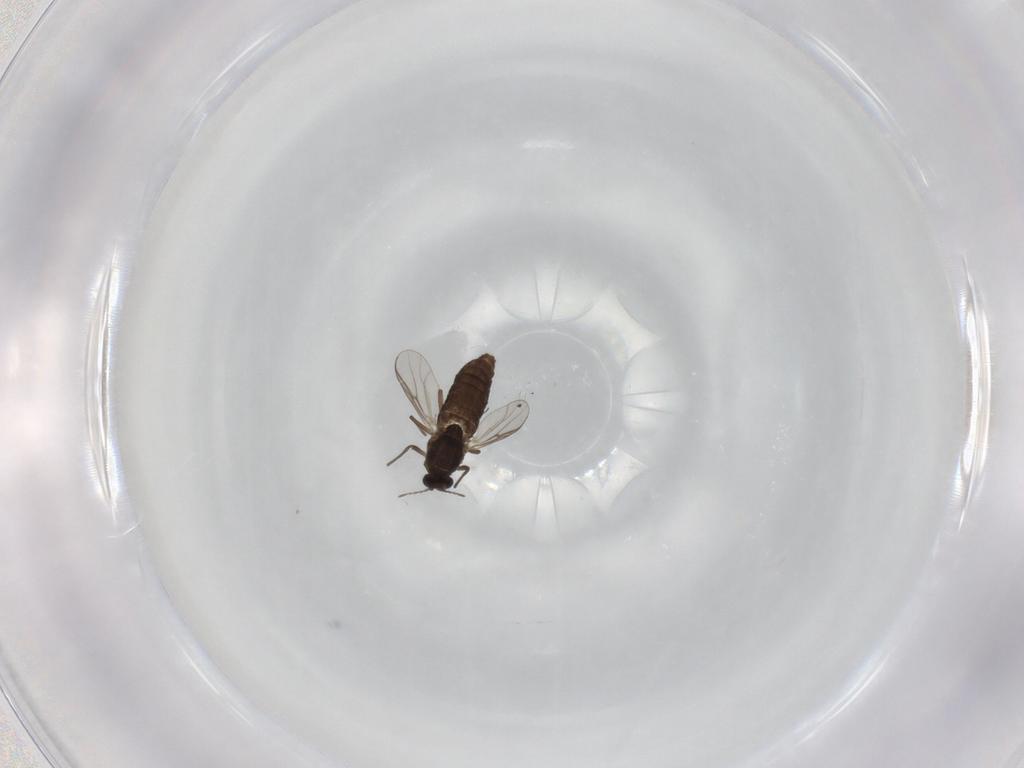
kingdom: Animalia
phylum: Arthropoda
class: Insecta
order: Diptera
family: Chironomidae
